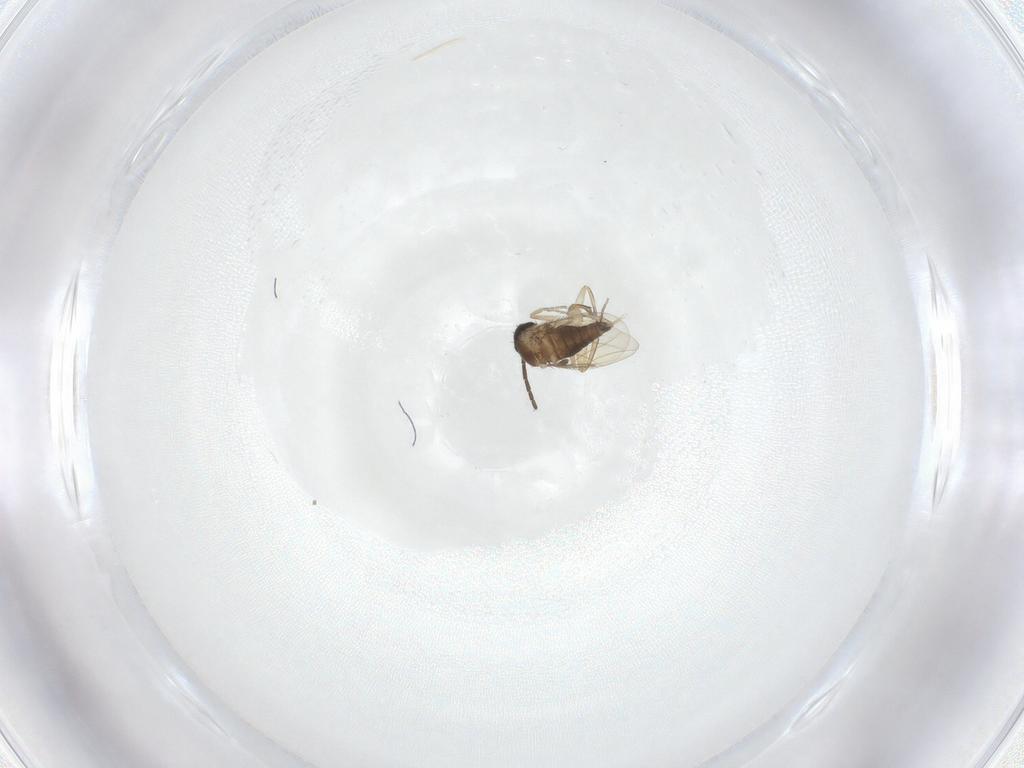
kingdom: Animalia
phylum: Arthropoda
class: Insecta
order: Diptera
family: Phoridae
